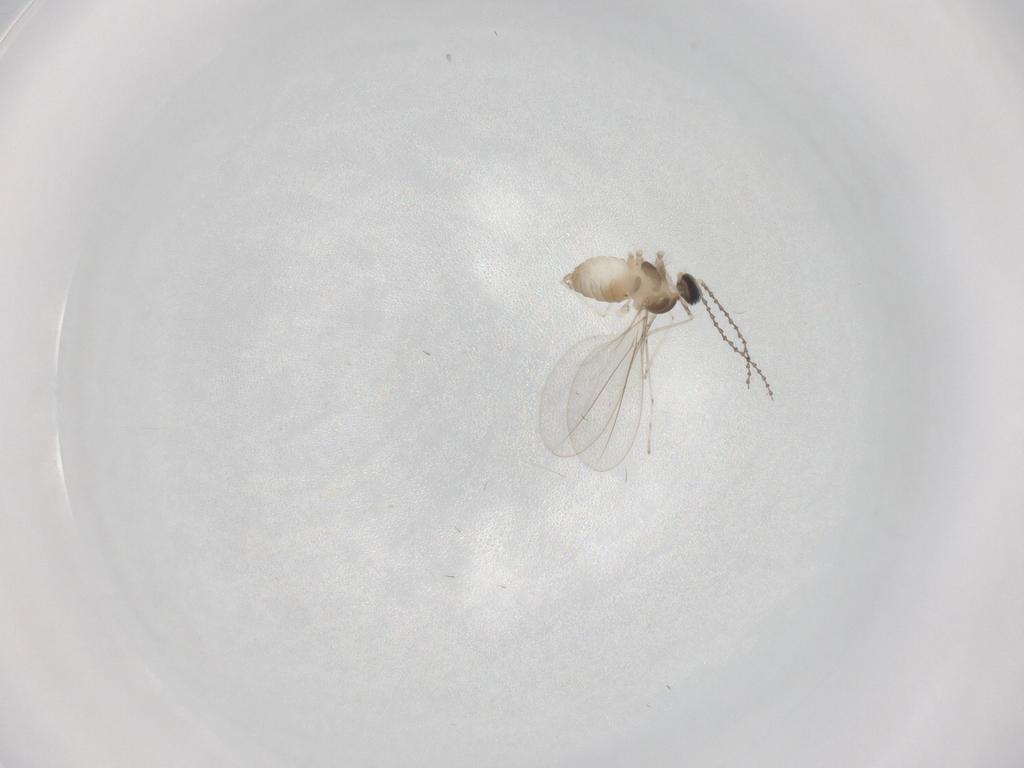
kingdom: Animalia
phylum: Arthropoda
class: Insecta
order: Diptera
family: Cecidomyiidae
